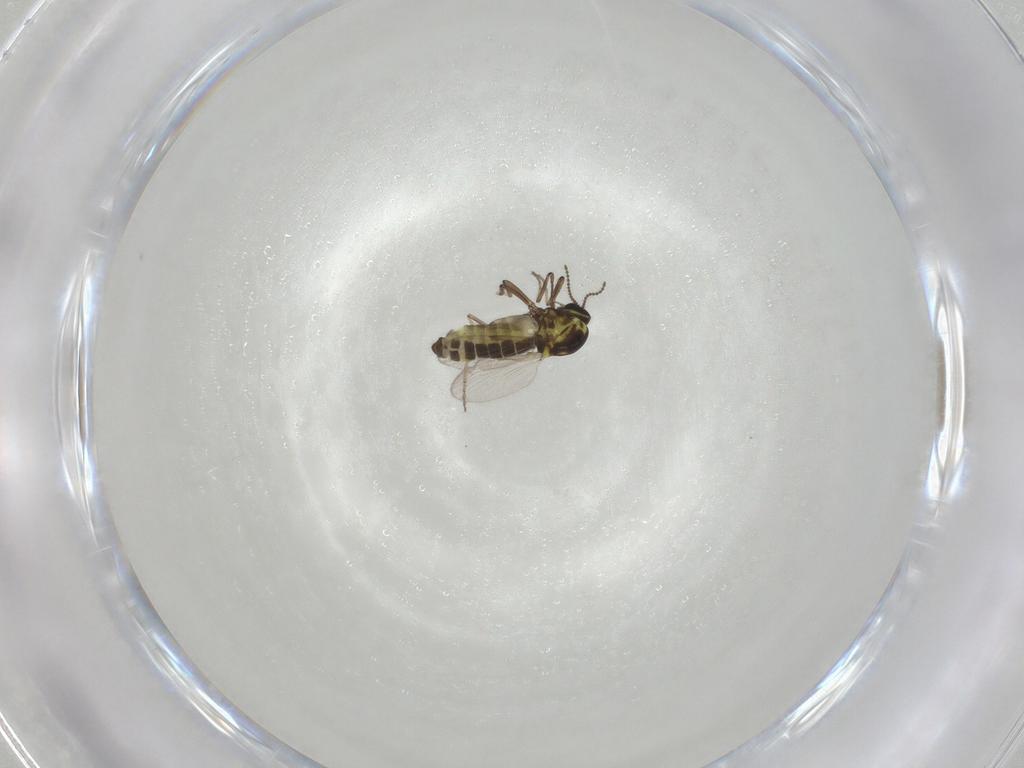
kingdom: Animalia
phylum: Arthropoda
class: Insecta
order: Diptera
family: Ceratopogonidae
